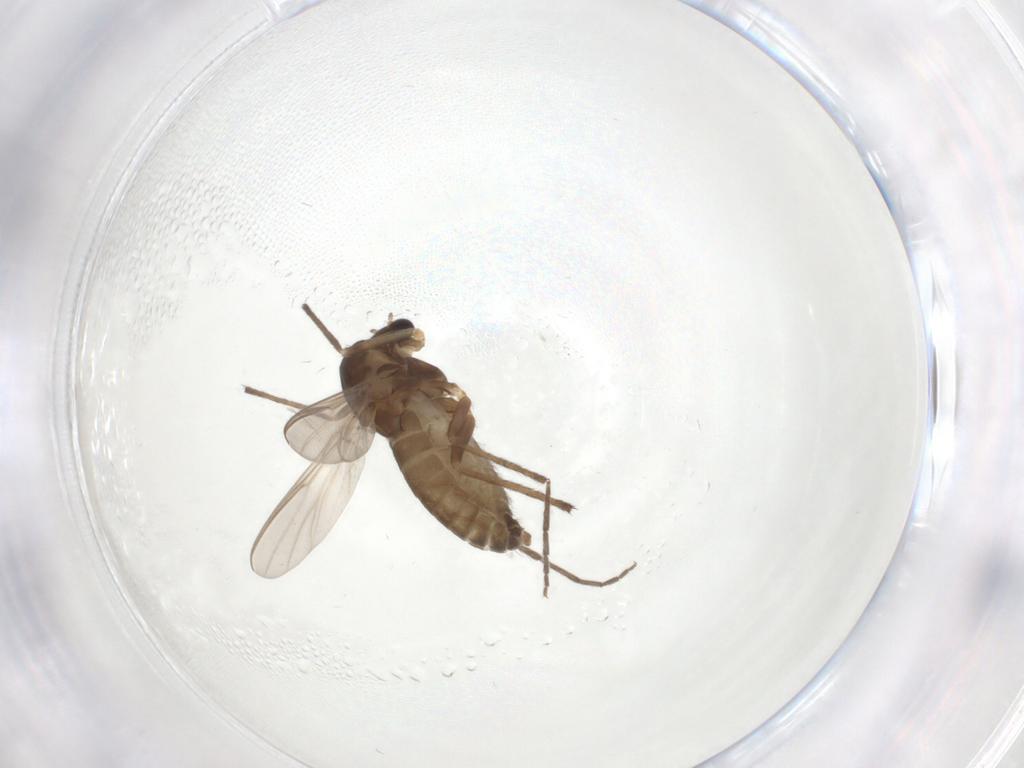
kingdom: Animalia
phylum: Arthropoda
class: Insecta
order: Diptera
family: Chironomidae
